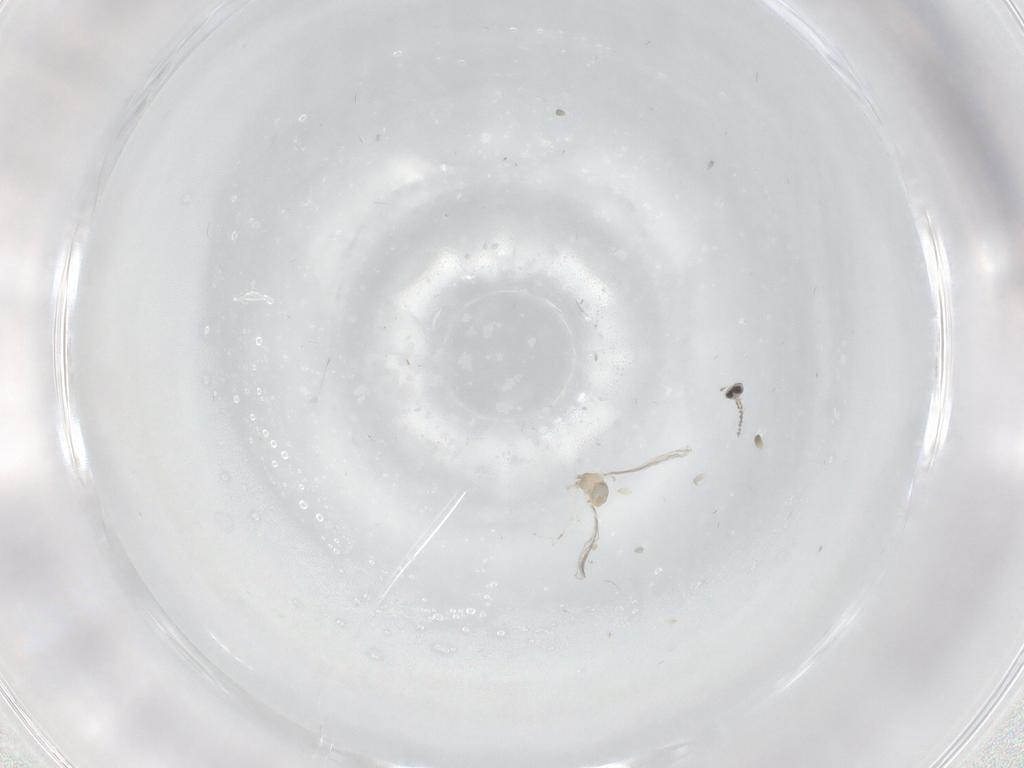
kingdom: Animalia
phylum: Arthropoda
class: Insecta
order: Diptera
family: Cecidomyiidae
